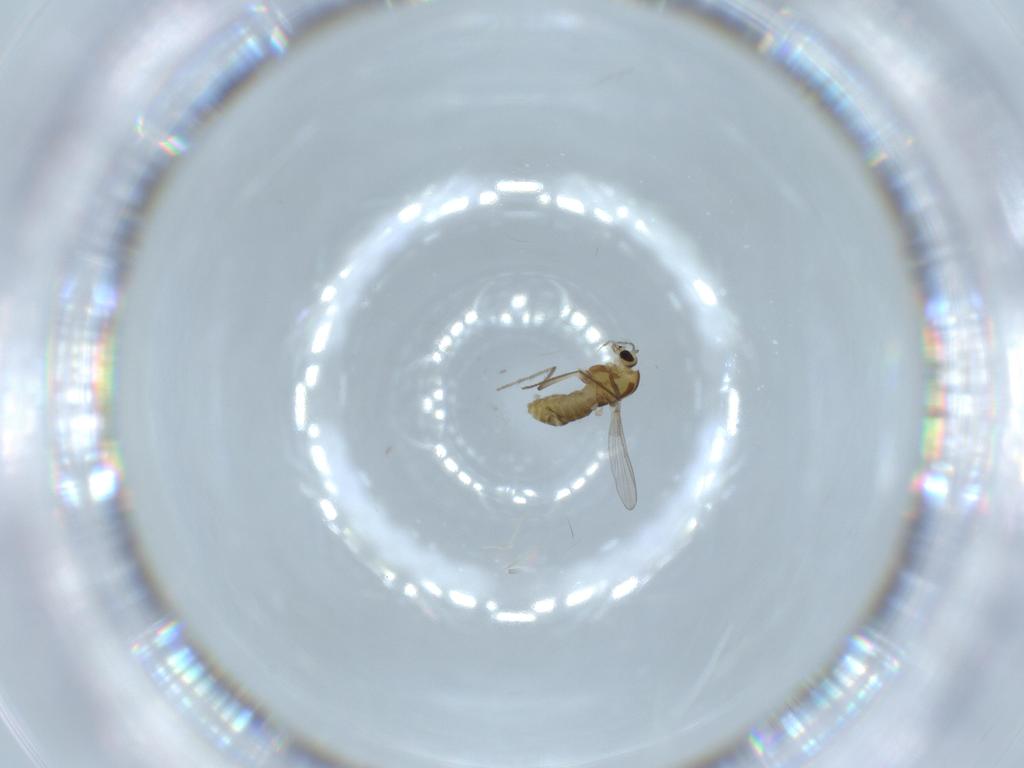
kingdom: Animalia
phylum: Arthropoda
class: Insecta
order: Diptera
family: Chironomidae
